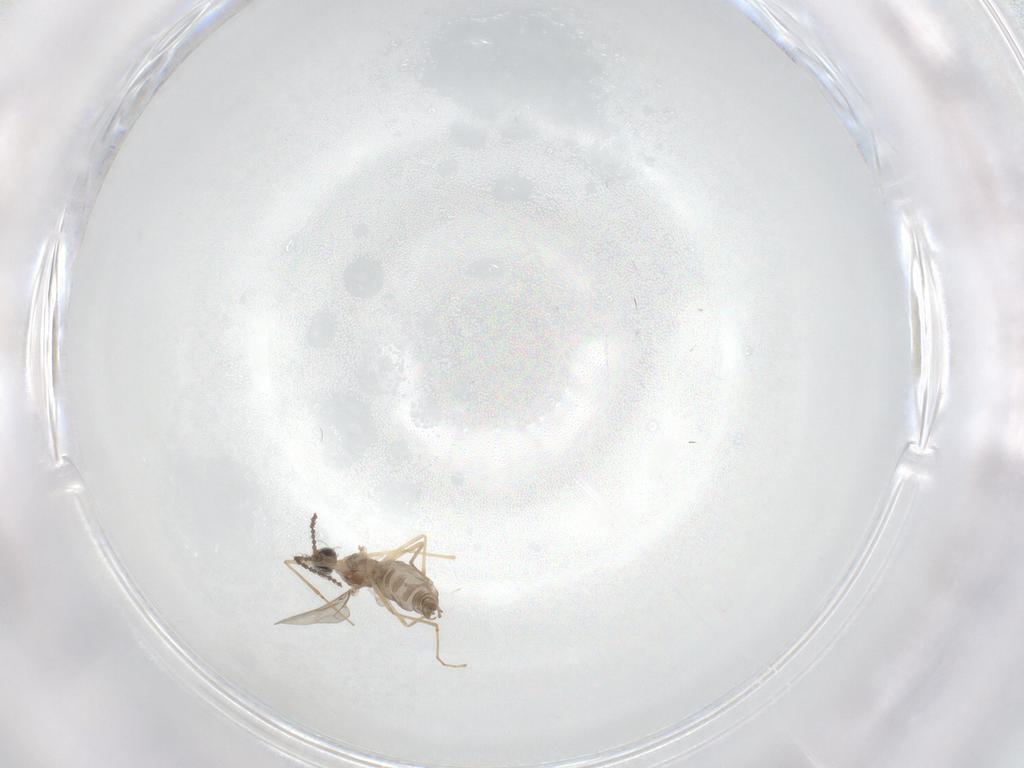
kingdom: Animalia
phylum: Arthropoda
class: Insecta
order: Diptera
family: Cecidomyiidae
